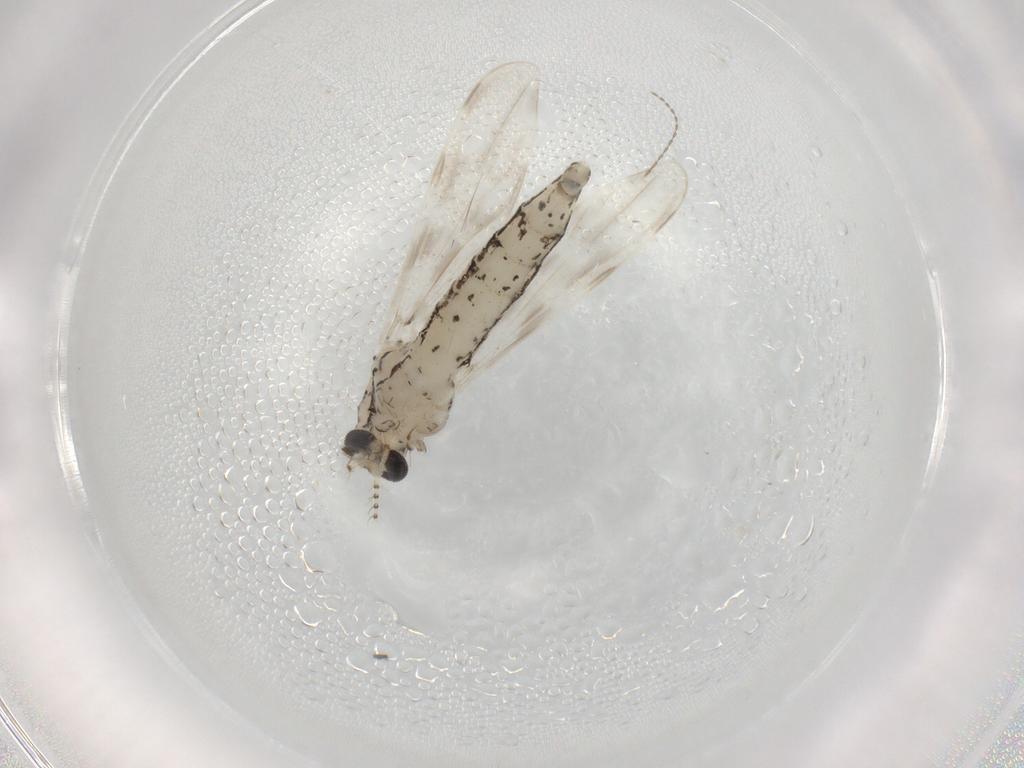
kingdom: Animalia
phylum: Arthropoda
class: Insecta
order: Diptera
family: Chaoboridae
